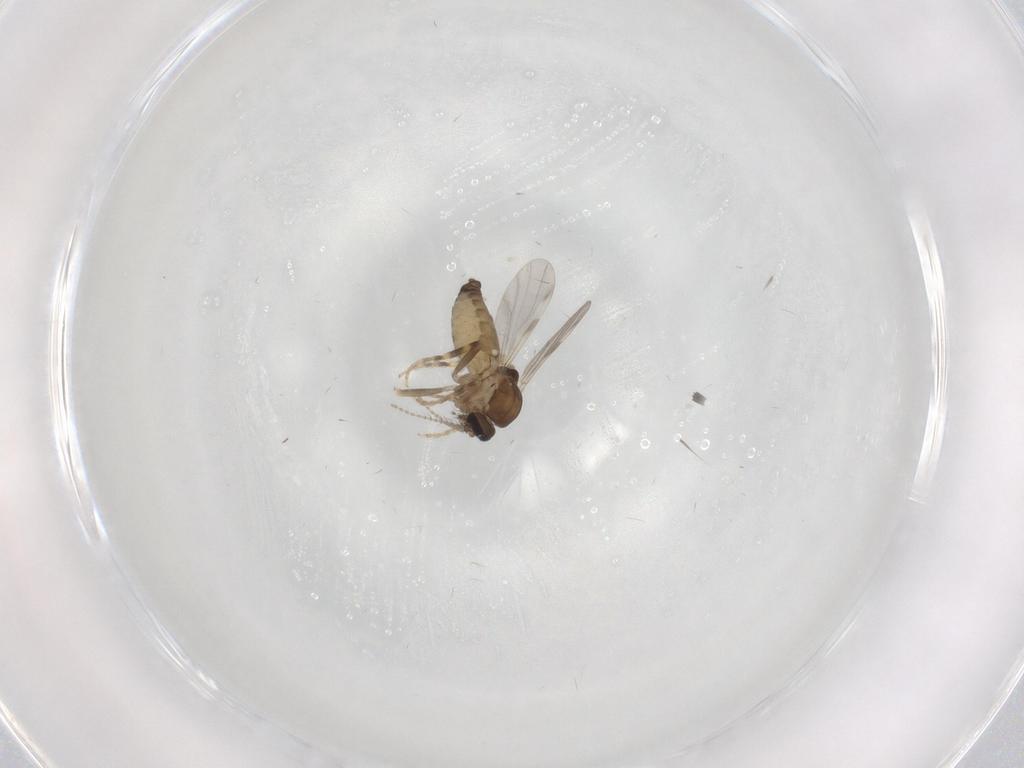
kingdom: Animalia
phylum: Arthropoda
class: Insecta
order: Diptera
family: Ceratopogonidae
